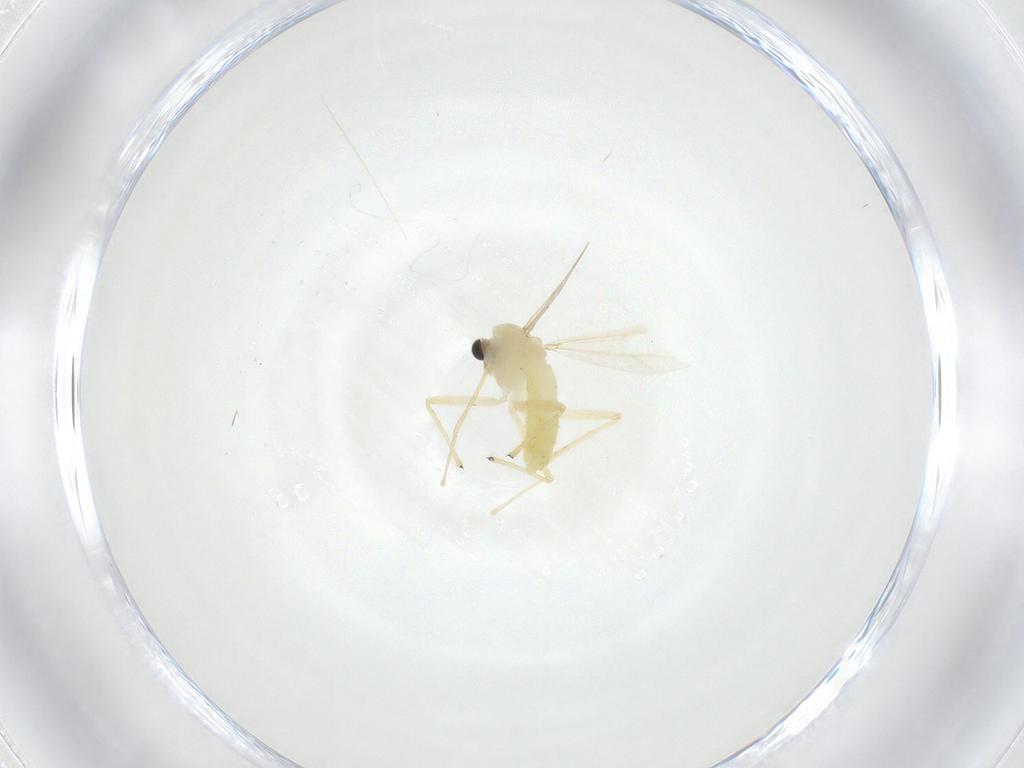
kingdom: Animalia
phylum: Arthropoda
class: Insecta
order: Diptera
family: Chironomidae
